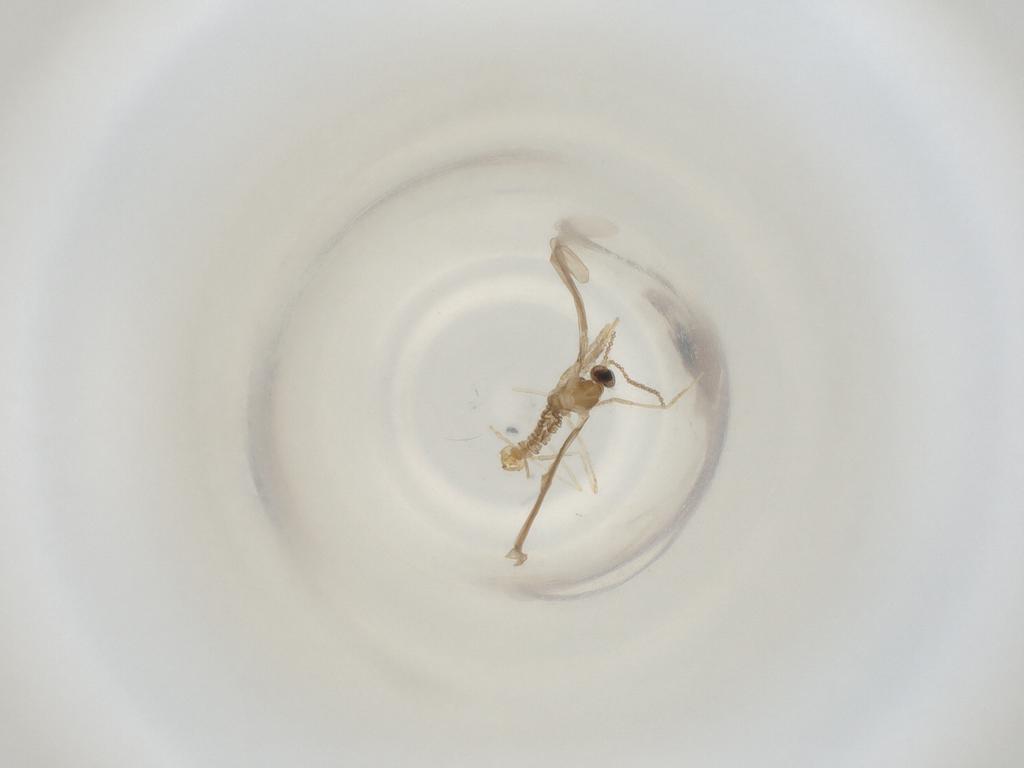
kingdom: Animalia
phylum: Arthropoda
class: Insecta
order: Diptera
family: Cecidomyiidae
